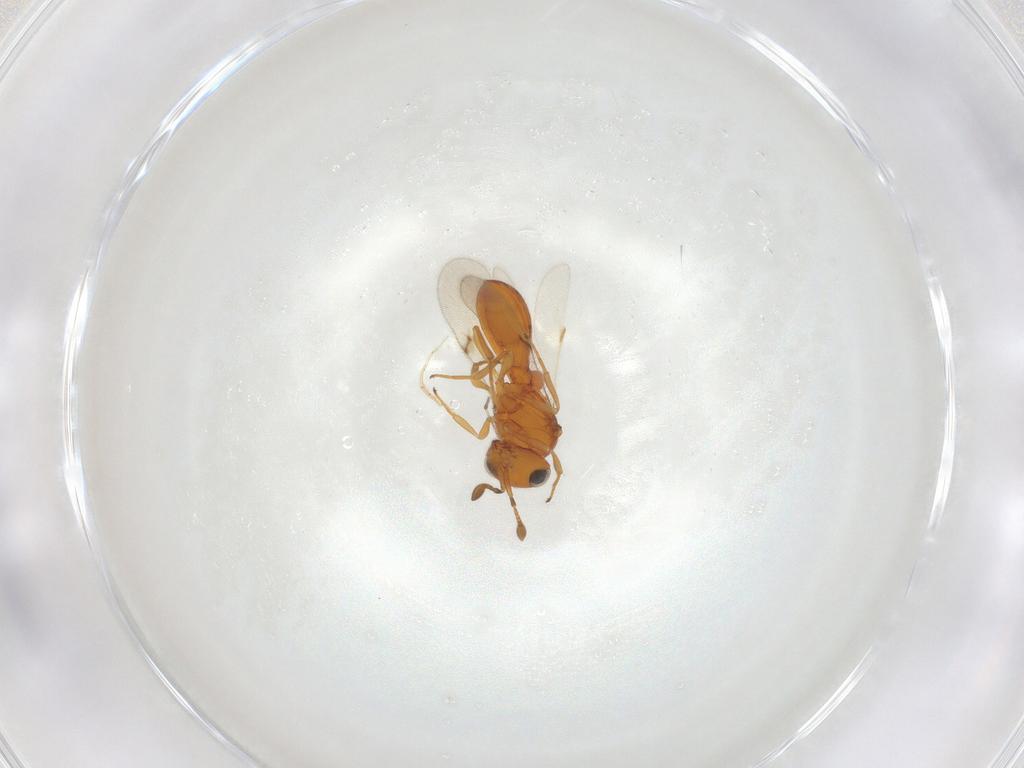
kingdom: Animalia
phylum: Arthropoda
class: Insecta
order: Hymenoptera
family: Scelionidae
